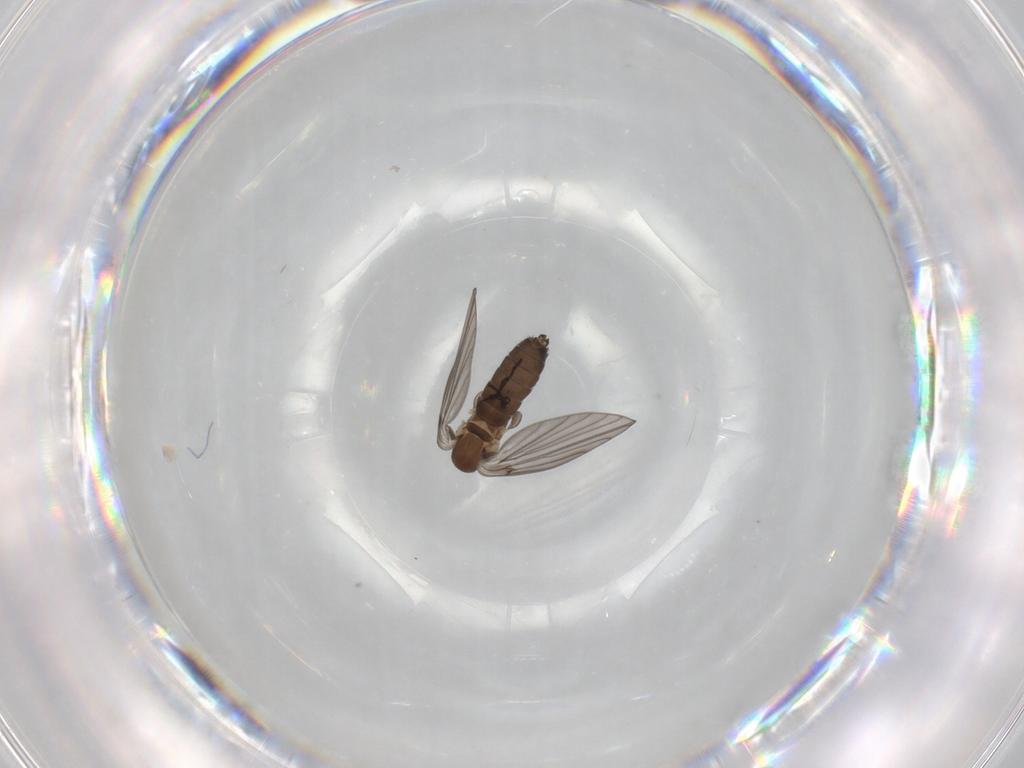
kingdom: Animalia
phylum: Arthropoda
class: Insecta
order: Diptera
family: Psychodidae
